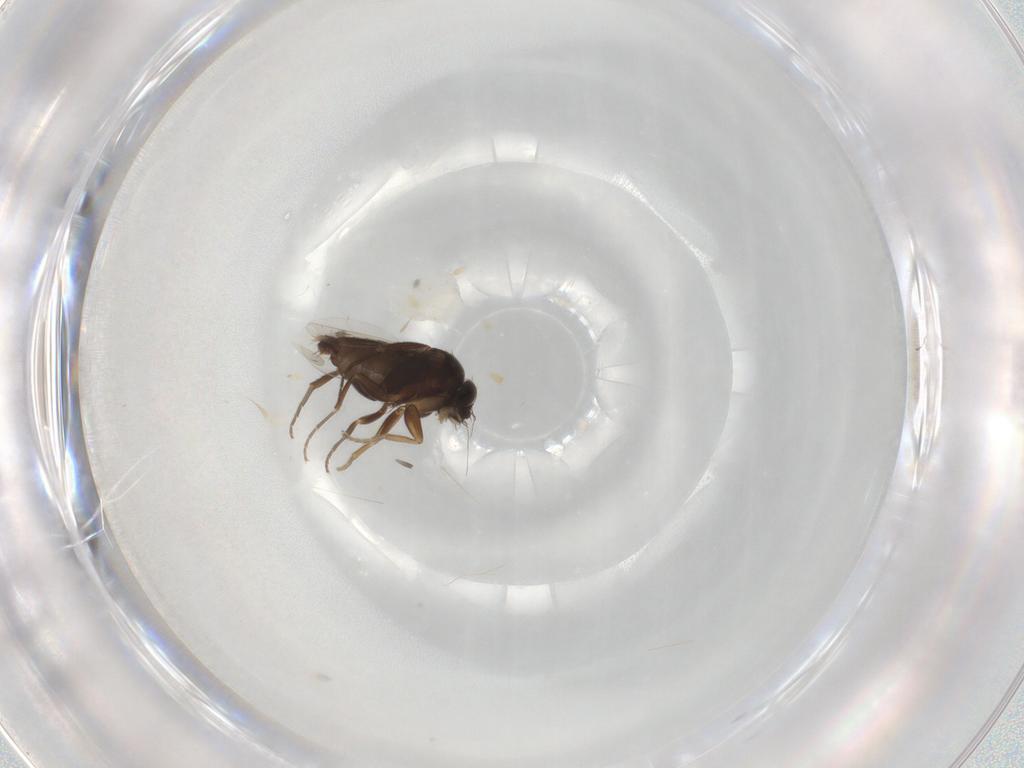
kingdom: Animalia
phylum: Arthropoda
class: Insecta
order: Diptera
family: Phoridae
